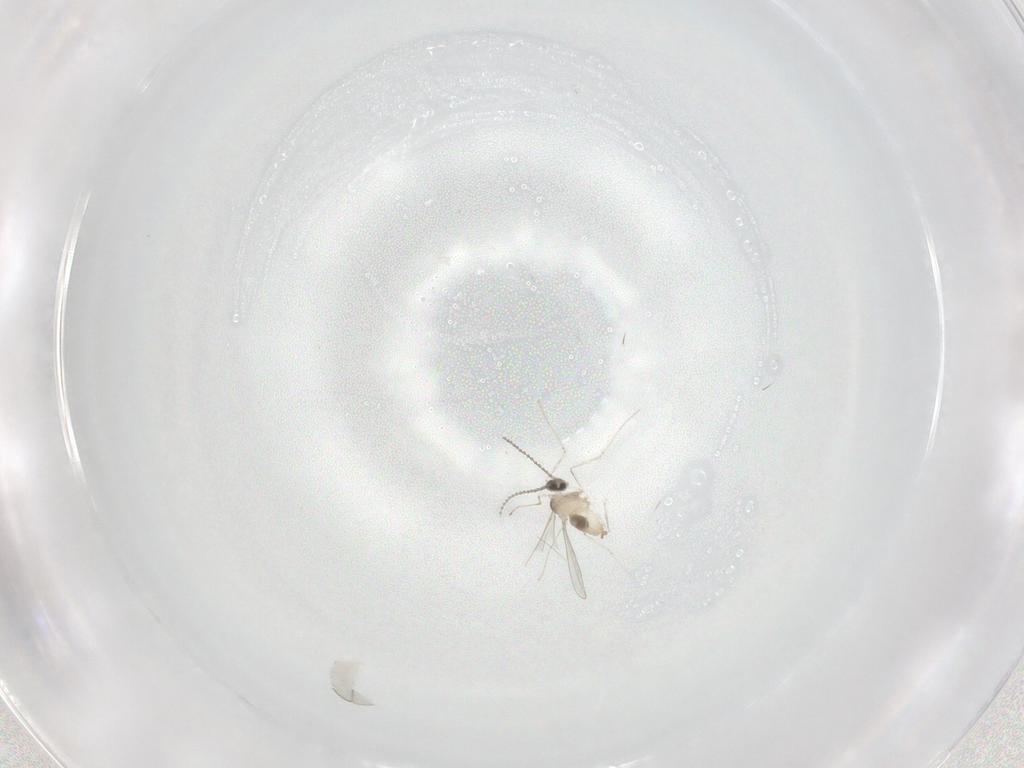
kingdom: Animalia
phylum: Arthropoda
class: Insecta
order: Diptera
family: Cecidomyiidae
